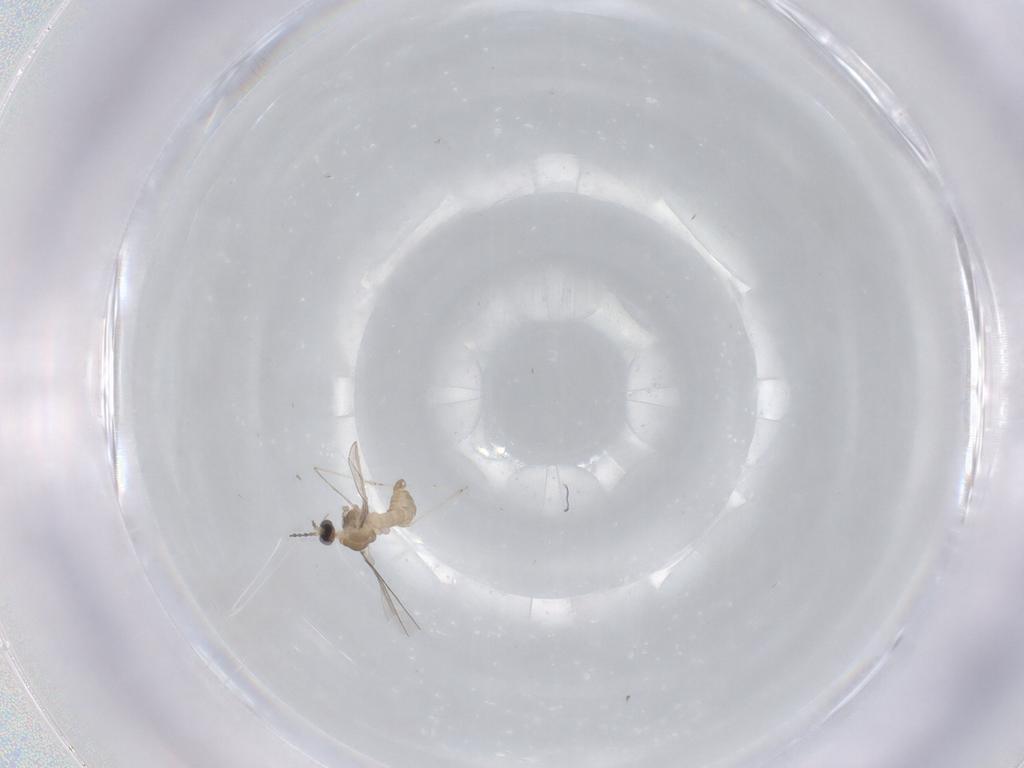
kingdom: Animalia
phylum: Arthropoda
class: Insecta
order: Diptera
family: Cecidomyiidae
